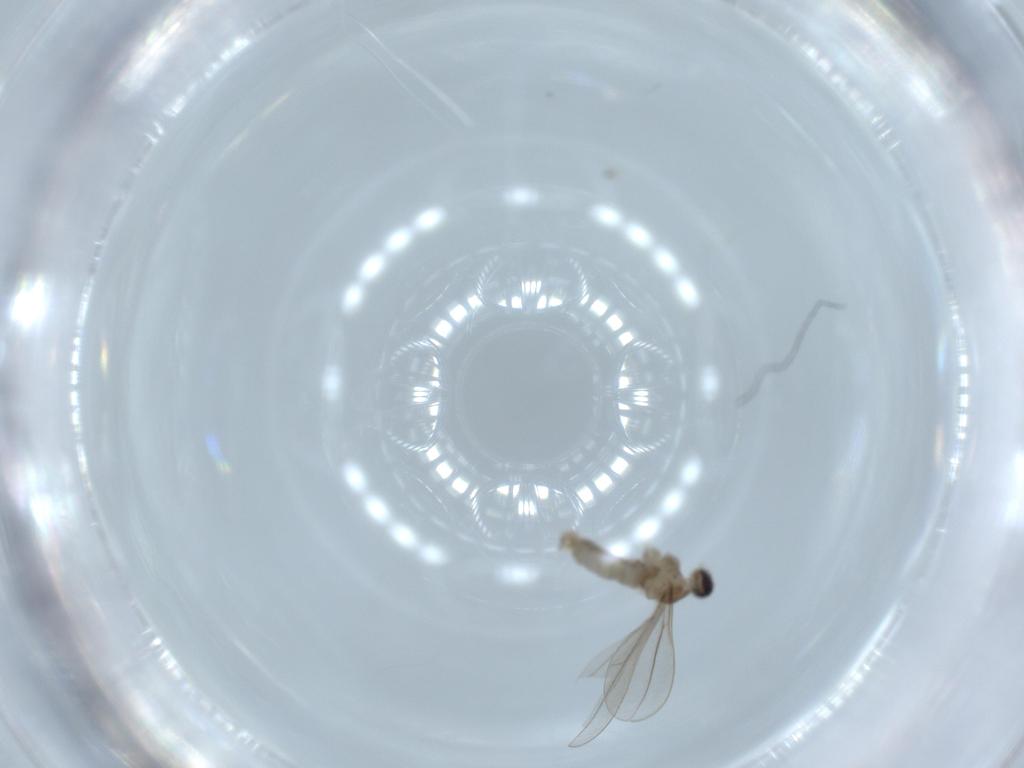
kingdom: Animalia
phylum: Arthropoda
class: Insecta
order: Diptera
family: Cecidomyiidae
